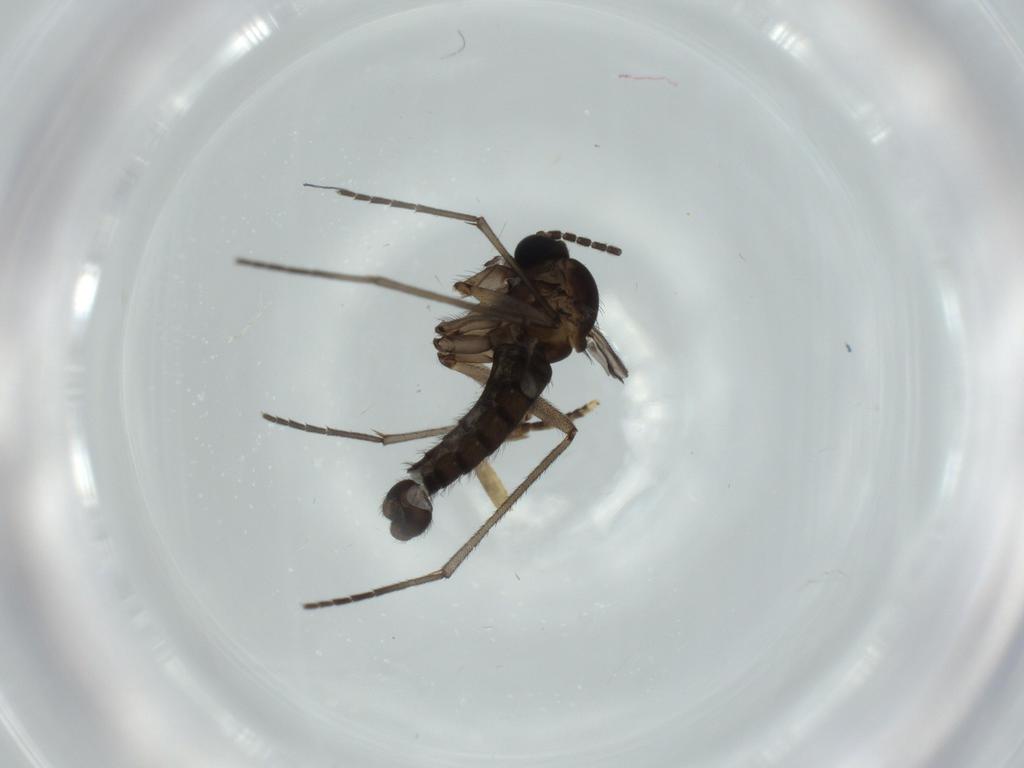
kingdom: Animalia
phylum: Arthropoda
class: Insecta
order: Diptera
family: Sciaridae
